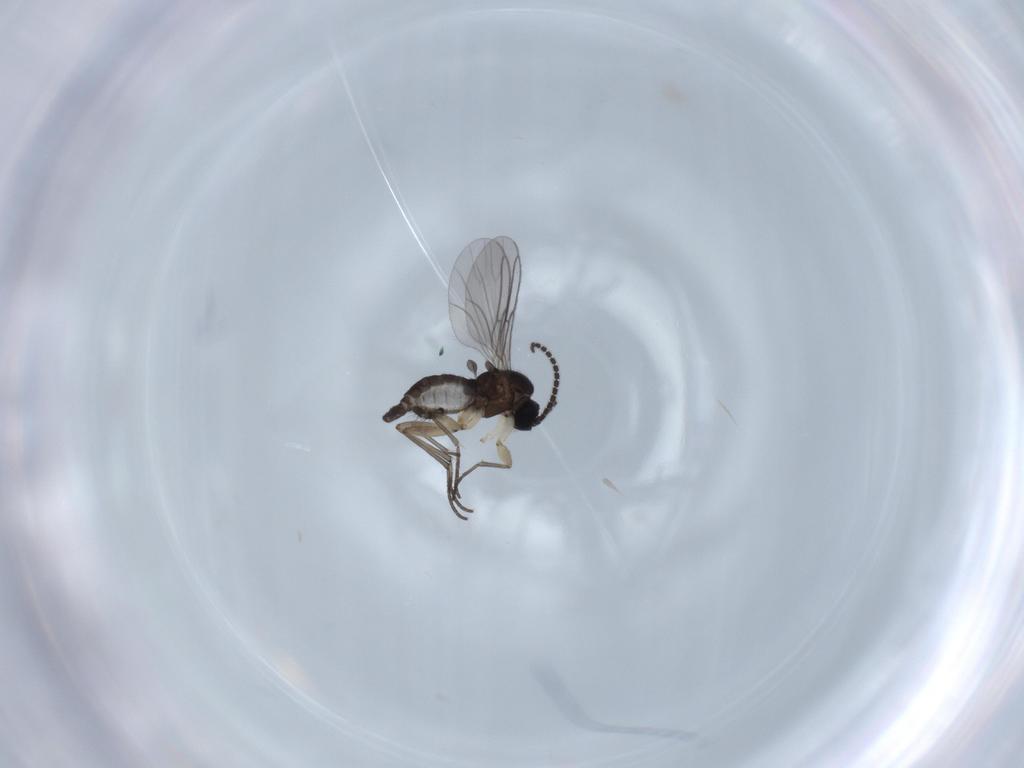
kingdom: Animalia
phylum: Arthropoda
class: Insecta
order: Diptera
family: Sciaridae
